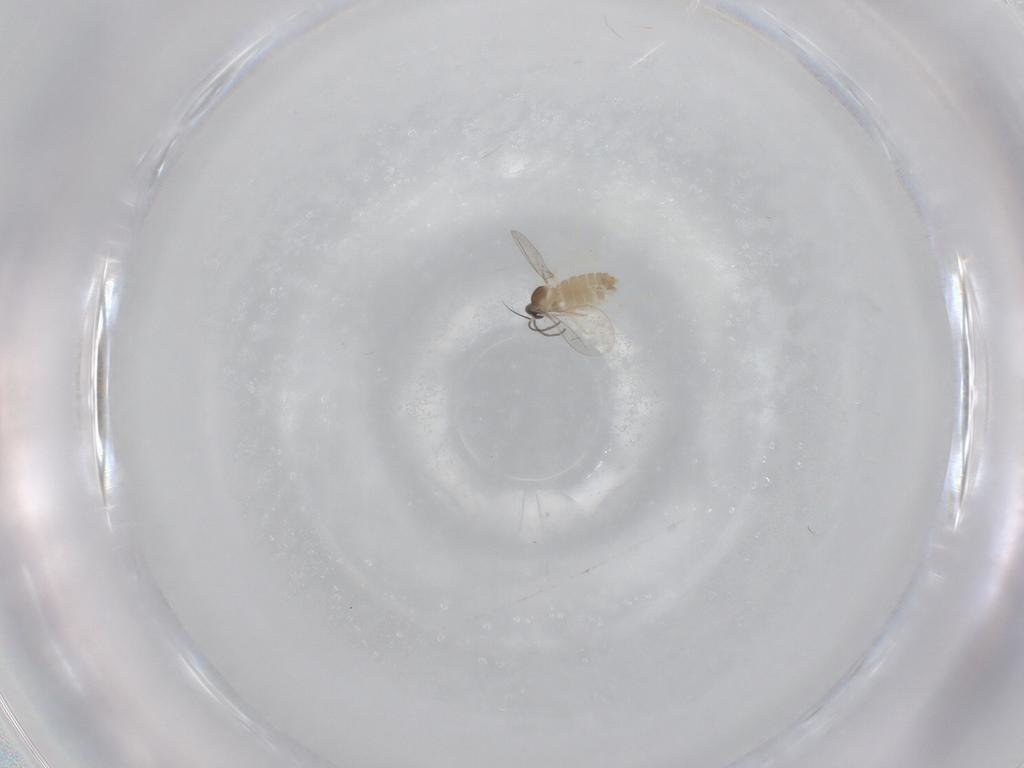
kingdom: Animalia
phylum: Arthropoda
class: Insecta
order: Diptera
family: Cecidomyiidae
